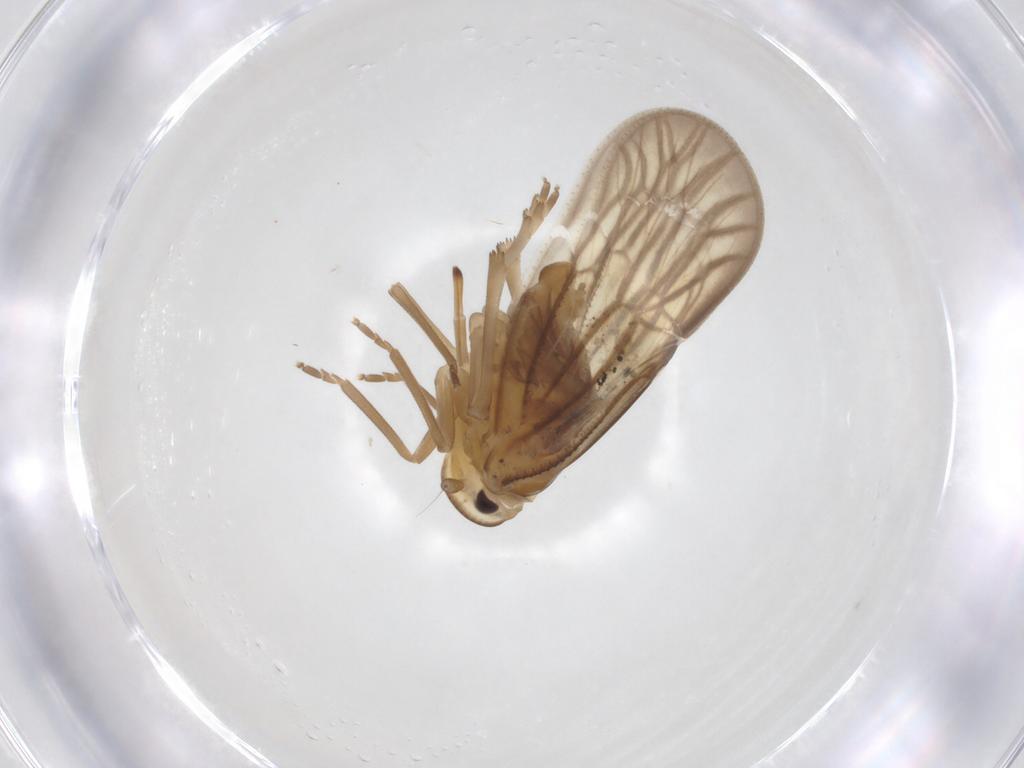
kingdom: Animalia
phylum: Arthropoda
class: Insecta
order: Hemiptera
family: Meenoplidae
